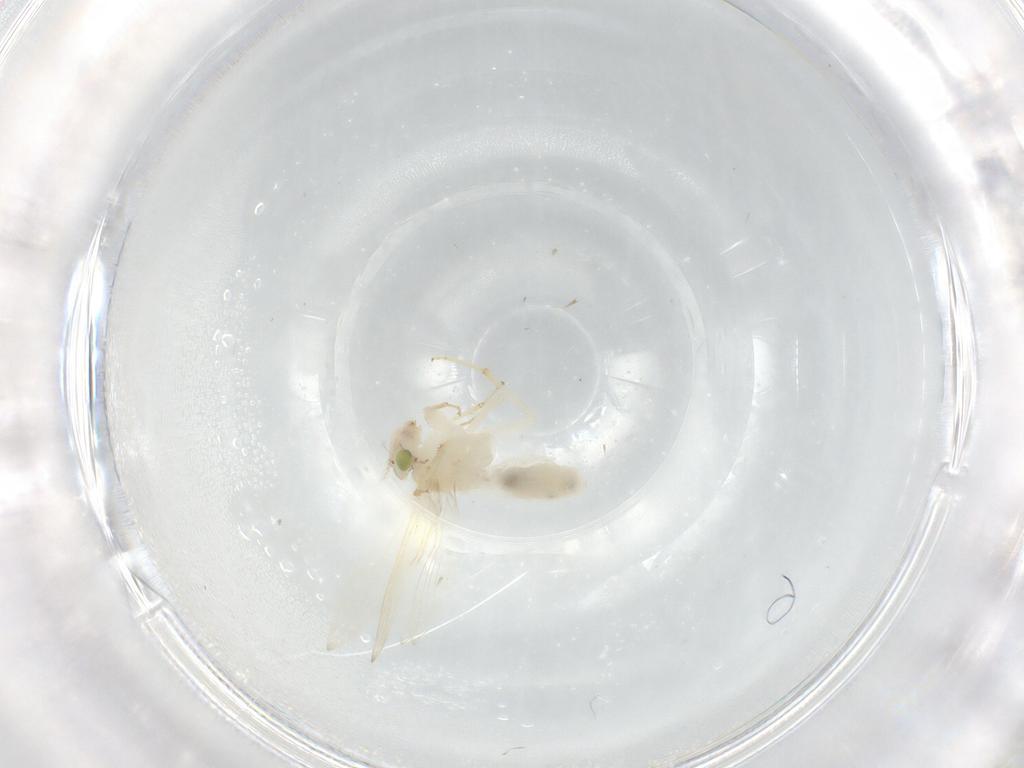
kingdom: Animalia
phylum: Arthropoda
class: Insecta
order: Psocodea
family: Lepidopsocidae
